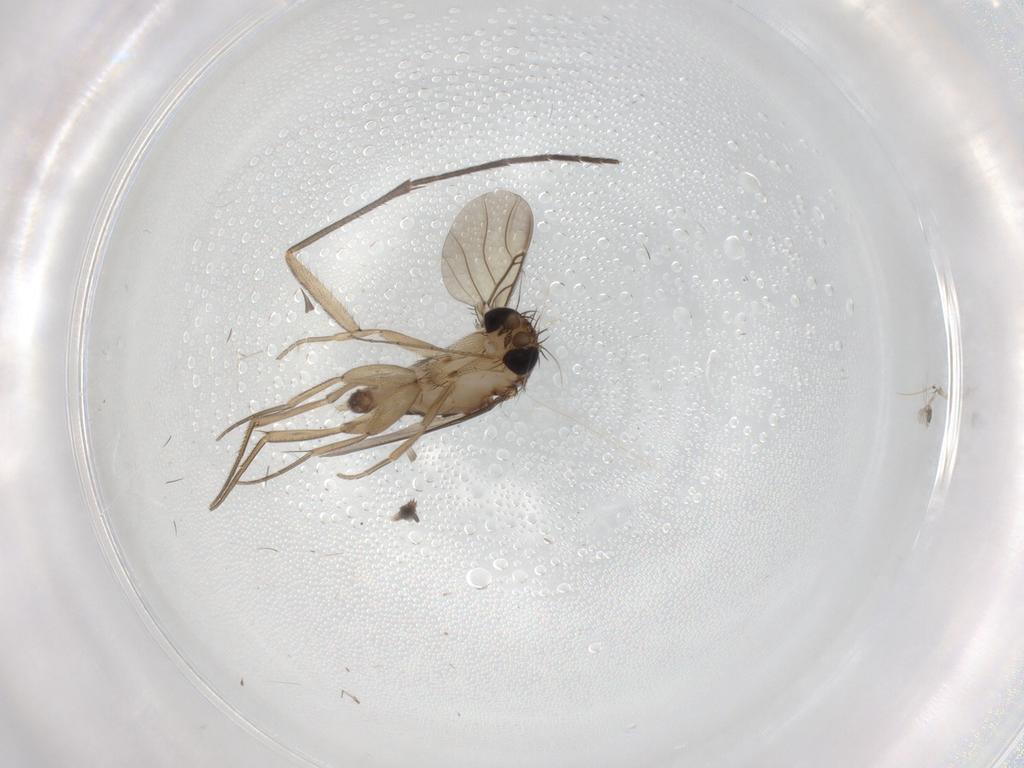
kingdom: Animalia
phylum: Arthropoda
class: Insecta
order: Diptera
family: Phoridae
